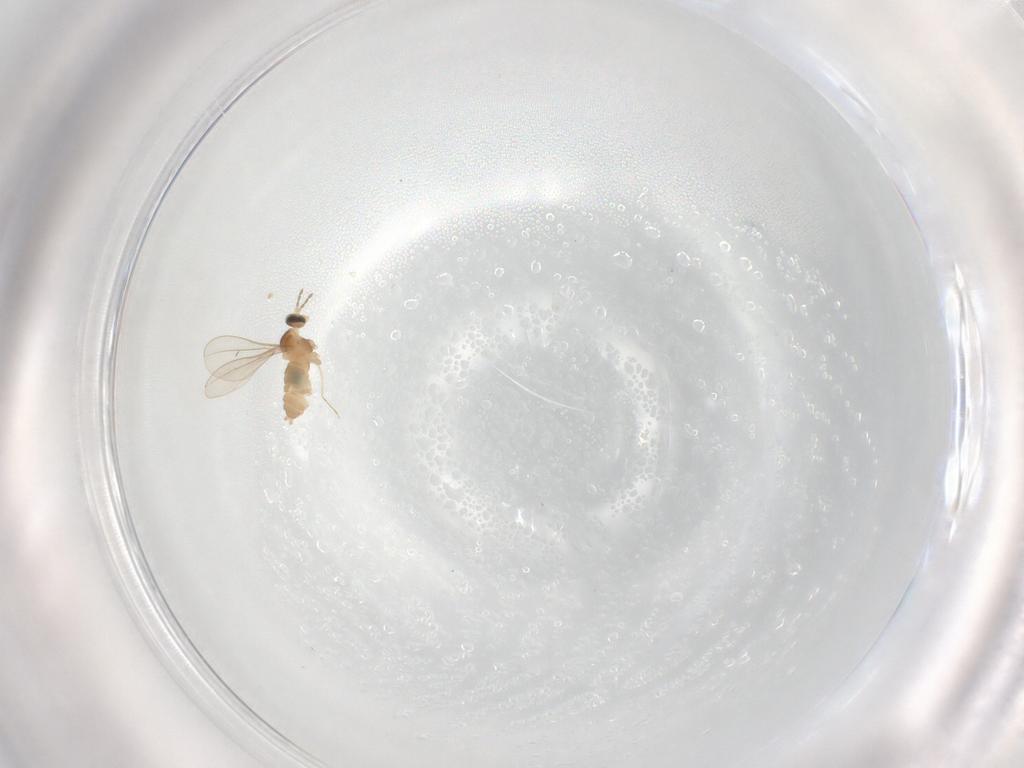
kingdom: Animalia
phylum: Arthropoda
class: Insecta
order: Diptera
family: Cecidomyiidae
